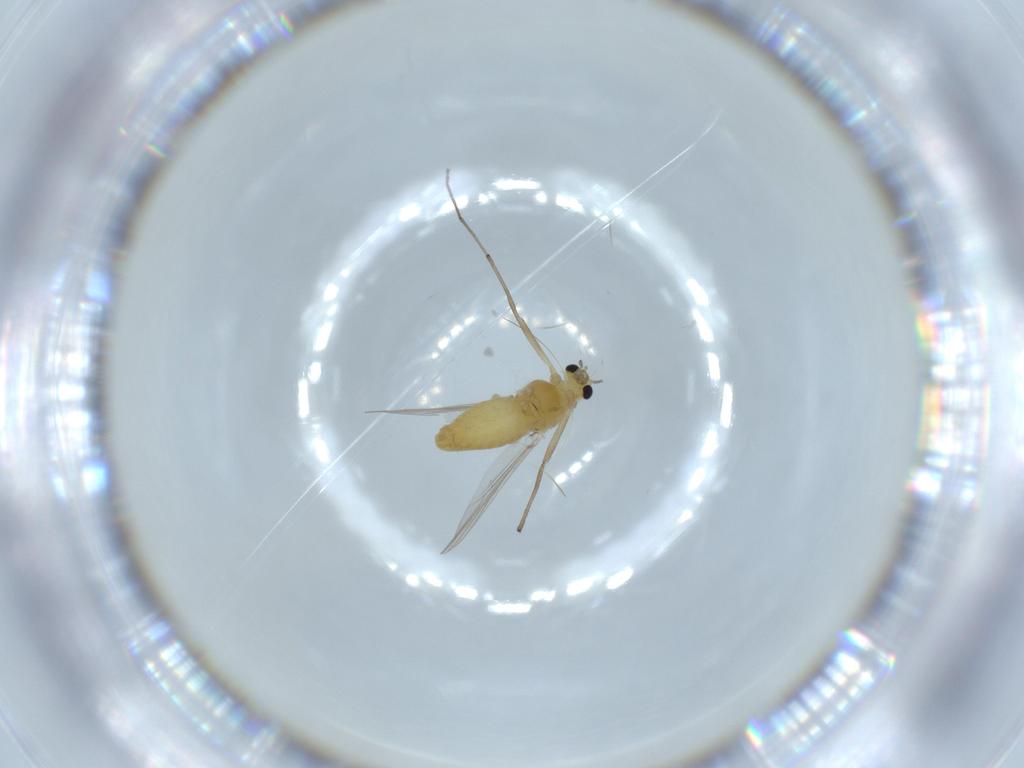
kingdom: Animalia
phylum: Arthropoda
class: Insecta
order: Diptera
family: Chironomidae
